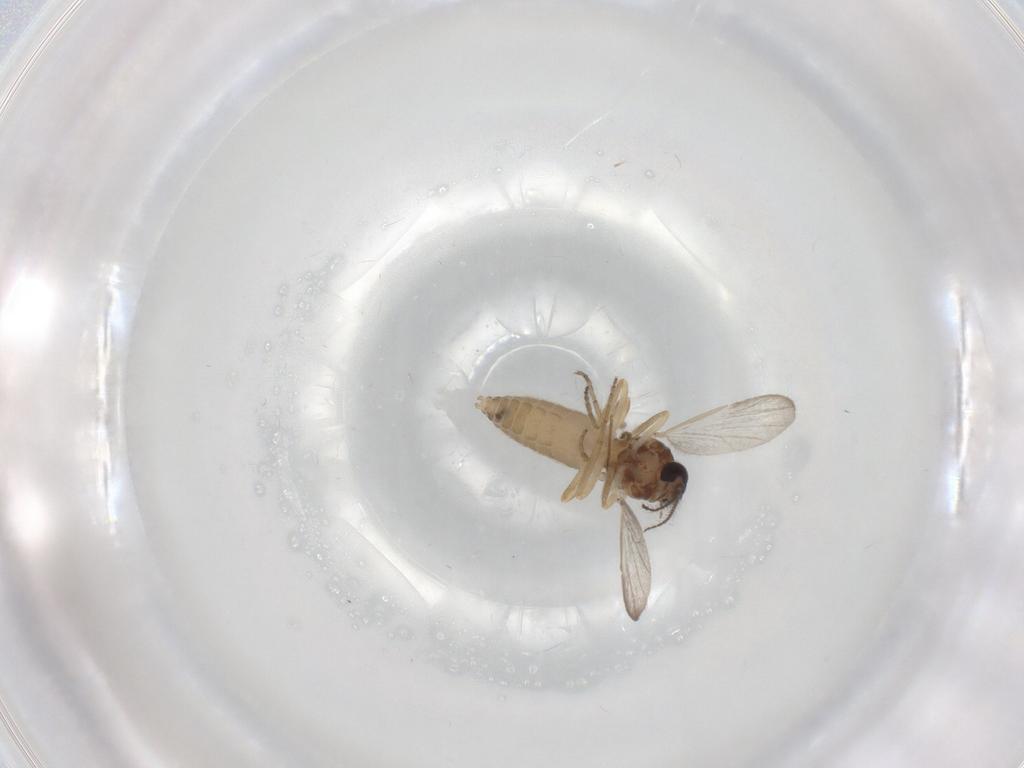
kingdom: Animalia
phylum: Arthropoda
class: Insecta
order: Diptera
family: Ceratopogonidae
